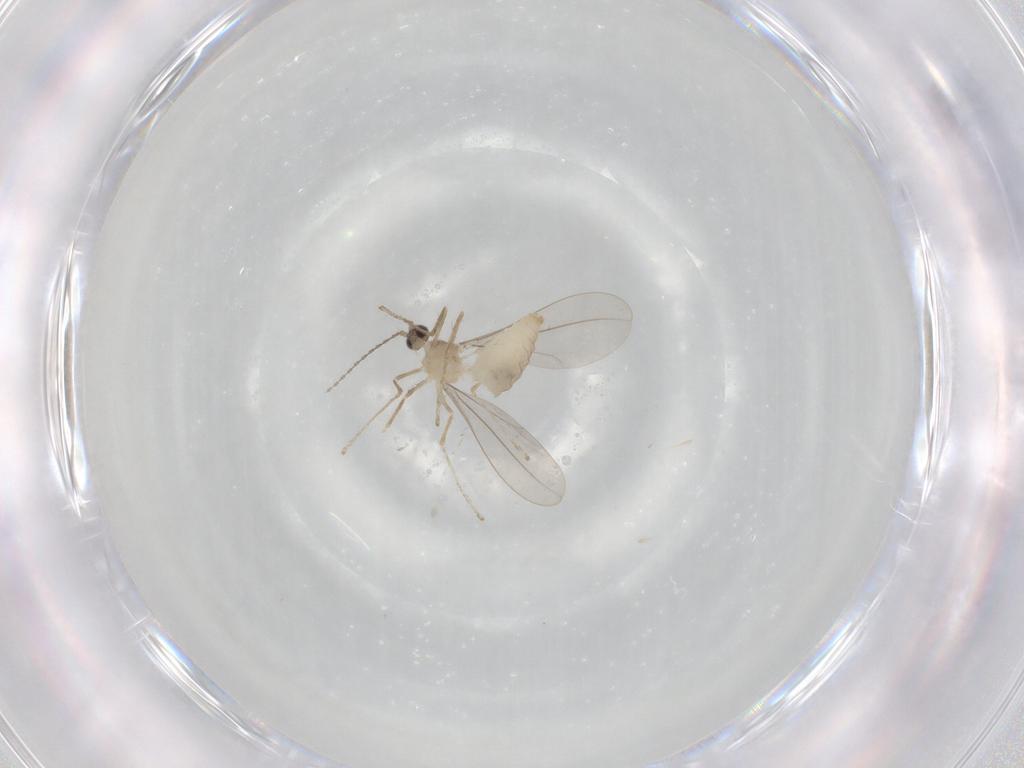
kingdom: Animalia
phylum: Arthropoda
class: Insecta
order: Diptera
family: Cecidomyiidae
